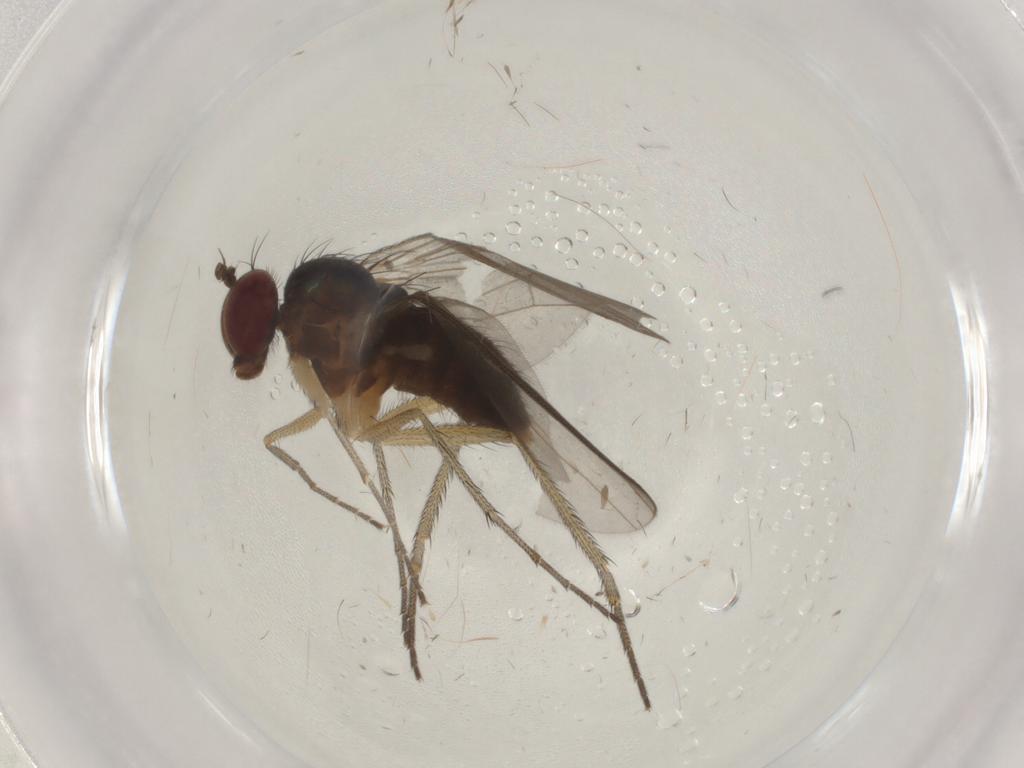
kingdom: Animalia
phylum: Arthropoda
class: Insecta
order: Diptera
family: Dolichopodidae
